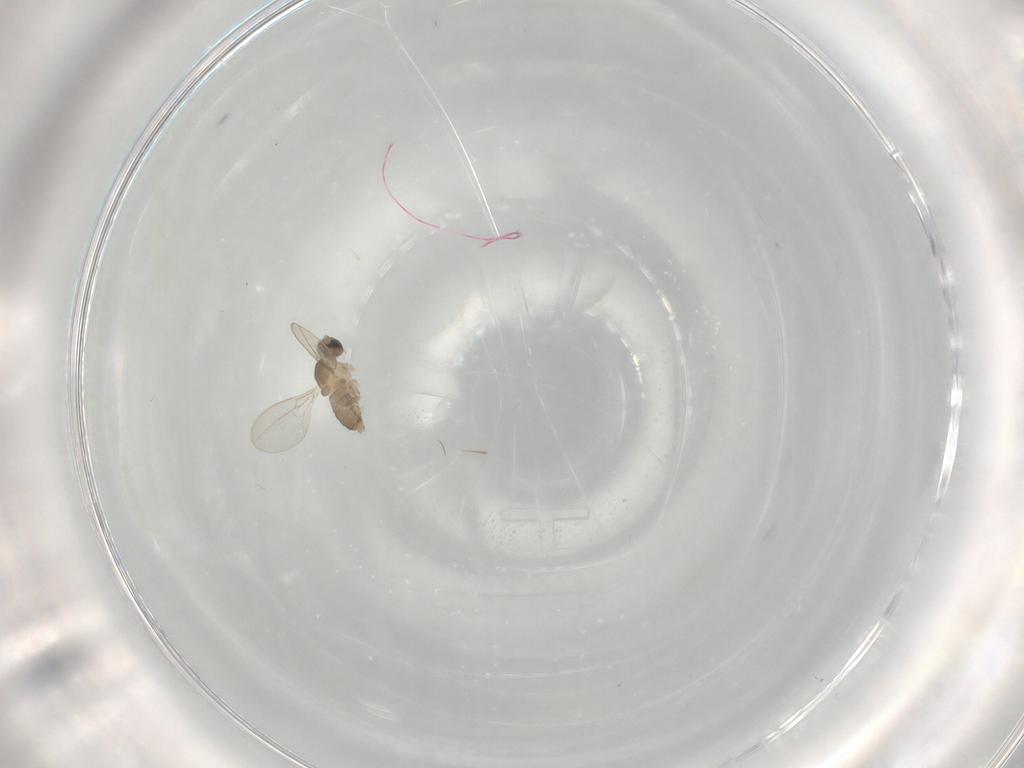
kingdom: Animalia
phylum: Arthropoda
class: Insecta
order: Diptera
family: Cecidomyiidae
